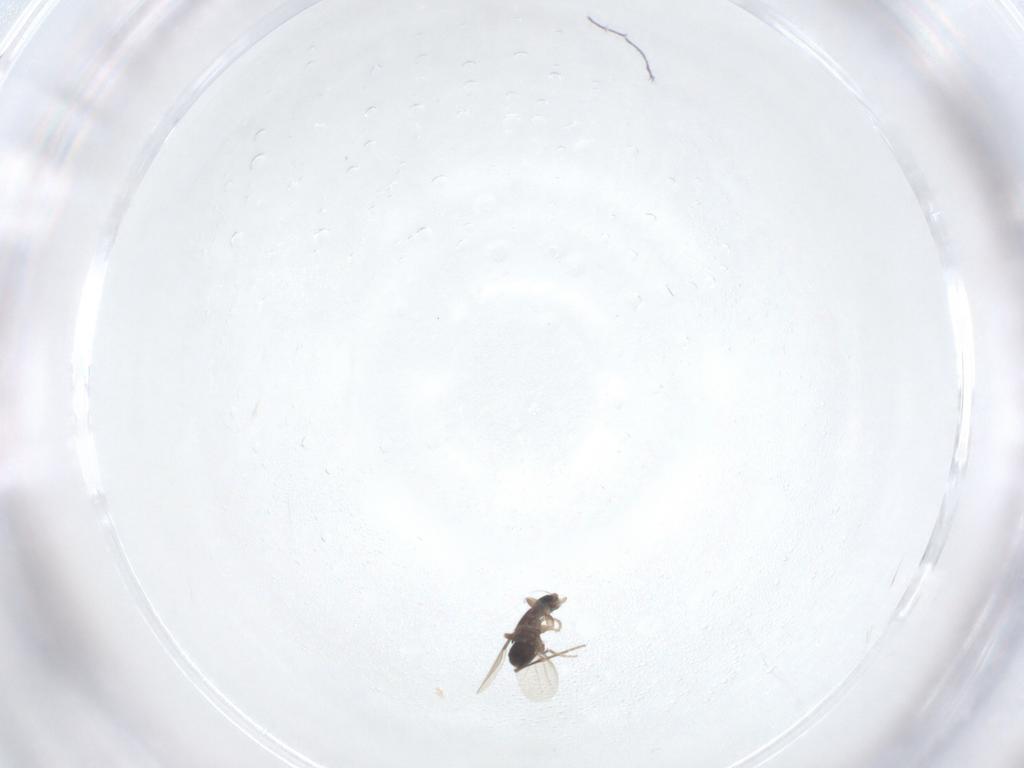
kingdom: Animalia
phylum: Arthropoda
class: Insecta
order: Diptera
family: Phoridae
